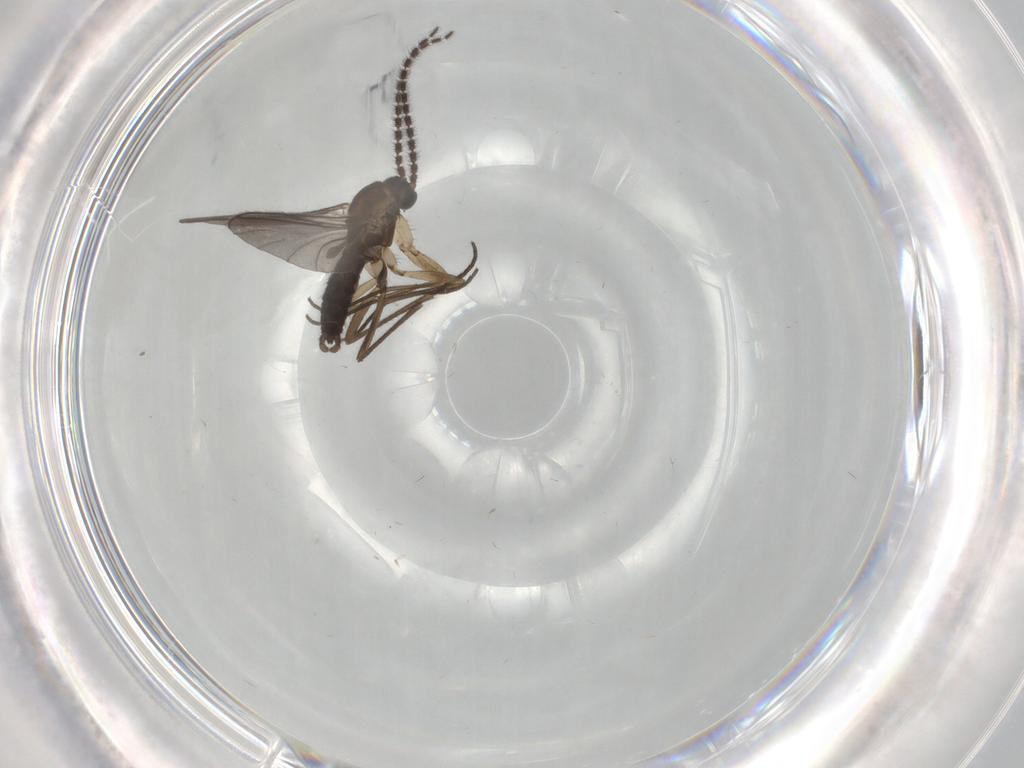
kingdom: Animalia
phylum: Arthropoda
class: Insecta
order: Diptera
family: Sciaridae
